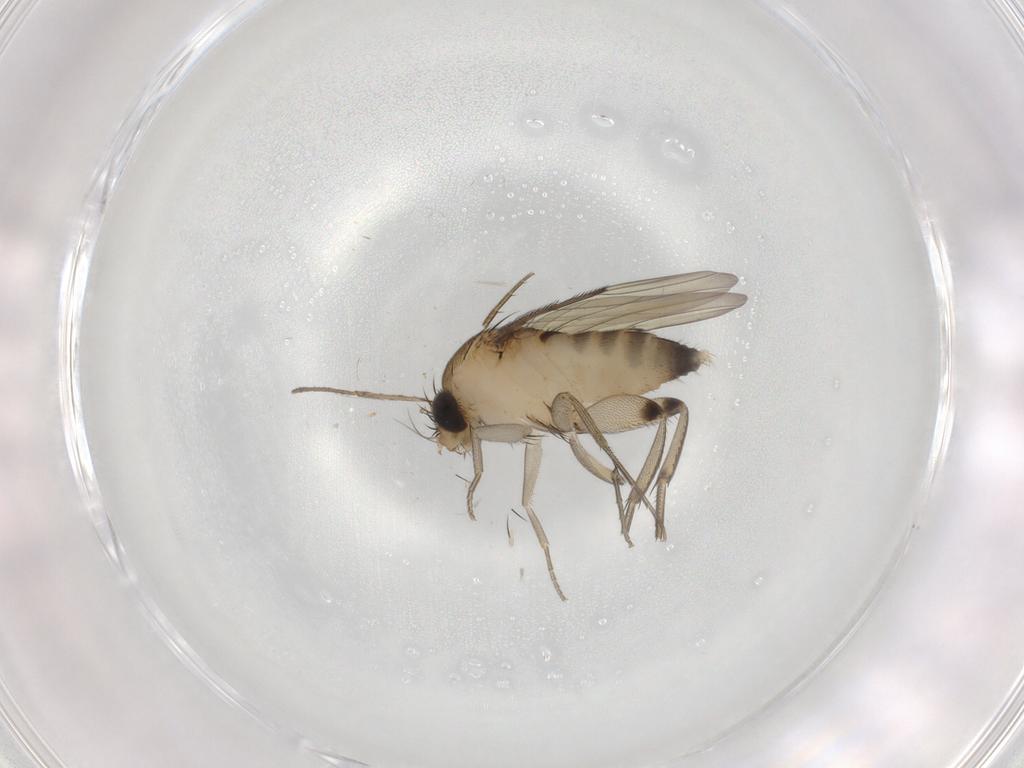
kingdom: Animalia
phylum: Arthropoda
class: Insecta
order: Diptera
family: Phoridae
